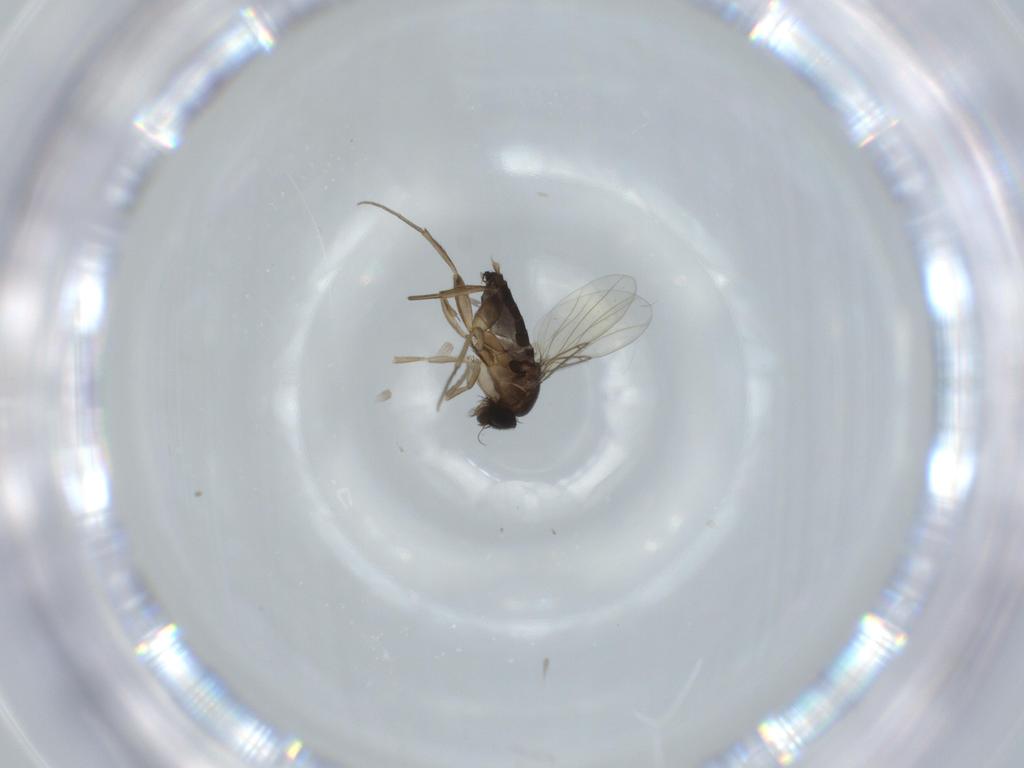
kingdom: Animalia
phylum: Arthropoda
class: Insecta
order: Diptera
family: Phoridae
